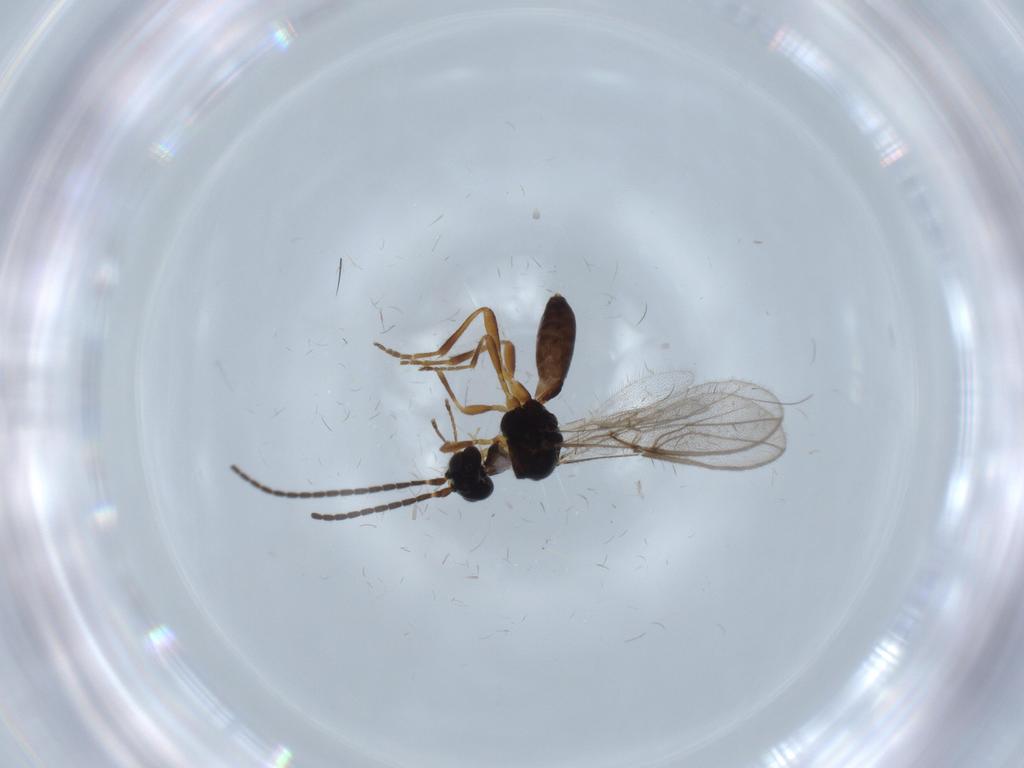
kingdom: Animalia
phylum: Arthropoda
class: Insecta
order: Hymenoptera
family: Braconidae
